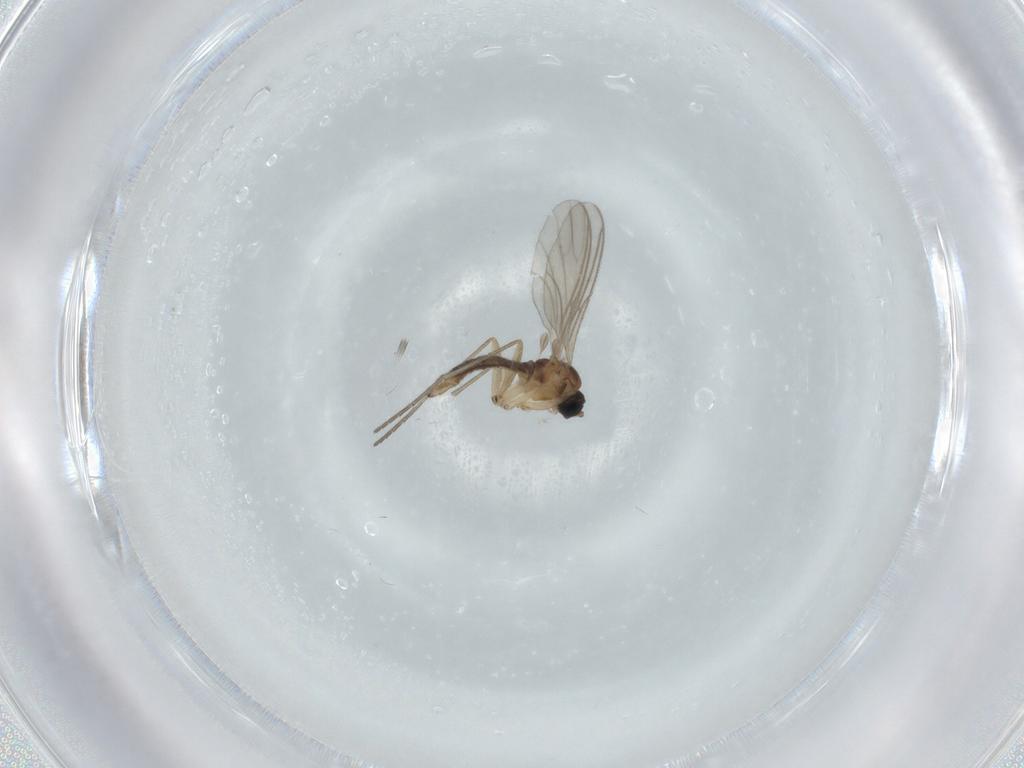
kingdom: Animalia
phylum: Arthropoda
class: Insecta
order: Diptera
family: Sciaridae
